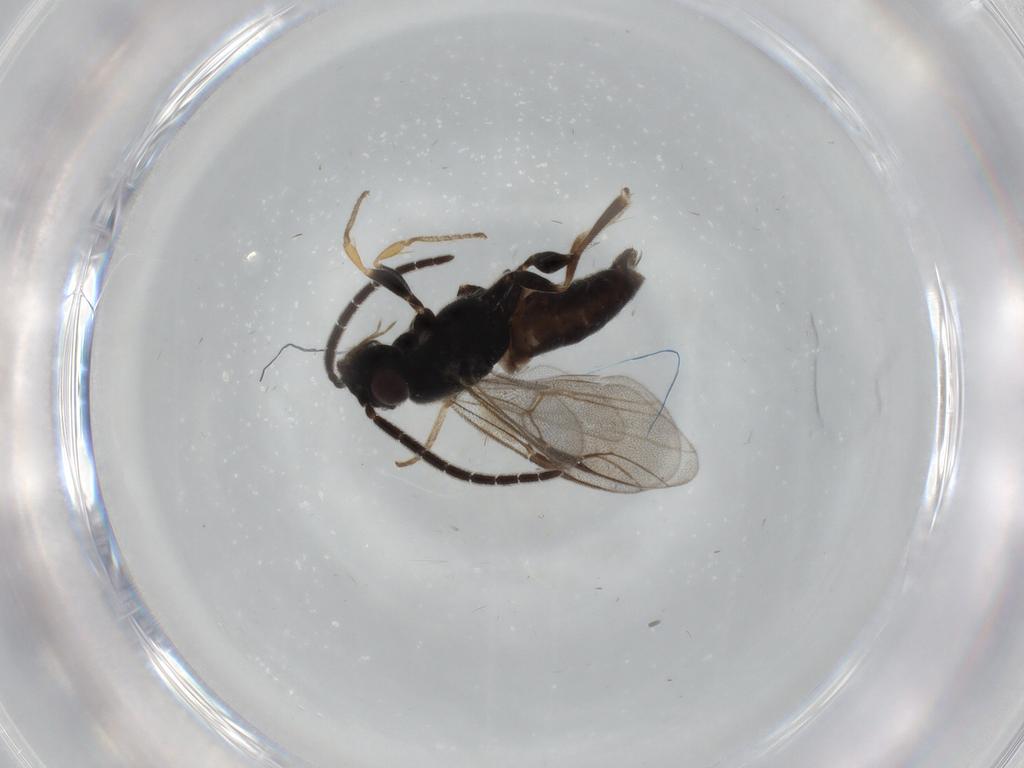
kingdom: Animalia
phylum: Arthropoda
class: Insecta
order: Hymenoptera
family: Dryinidae
